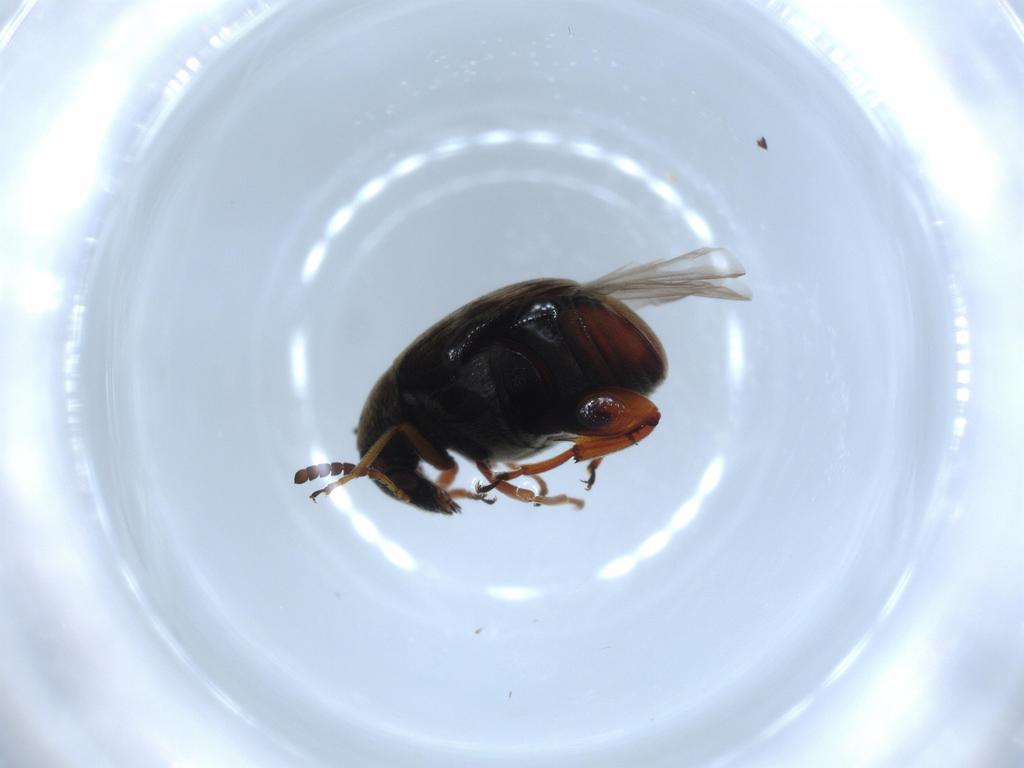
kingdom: Animalia
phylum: Arthropoda
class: Insecta
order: Coleoptera
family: Chrysomelidae
